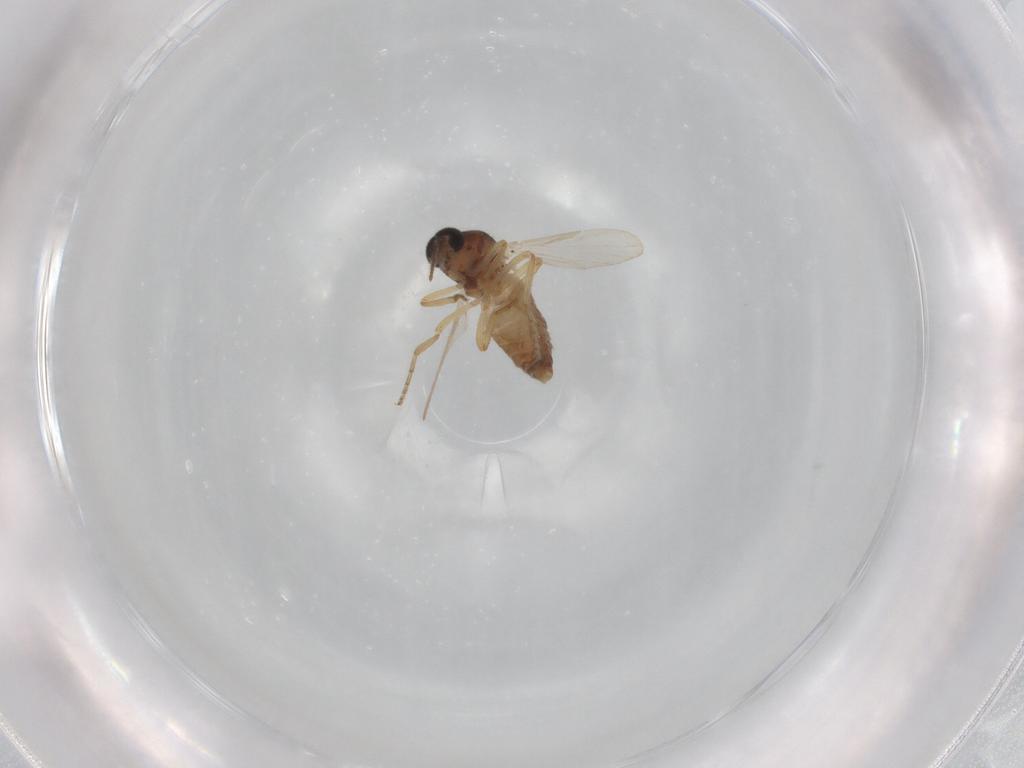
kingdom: Animalia
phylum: Arthropoda
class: Insecta
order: Diptera
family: Ceratopogonidae
